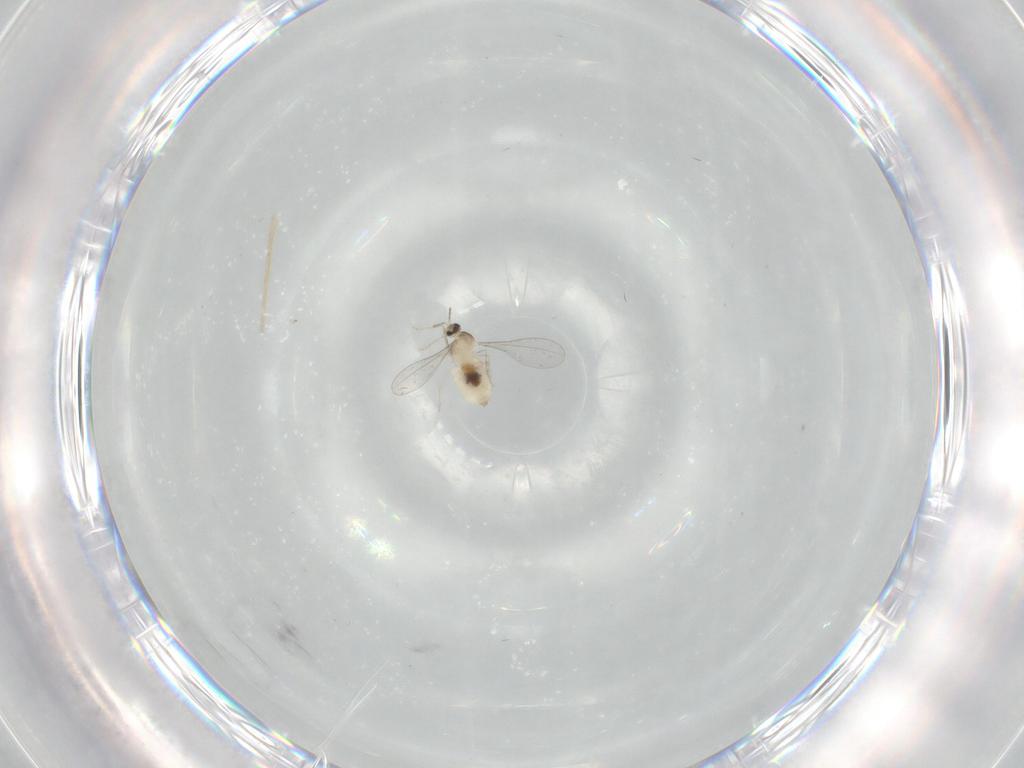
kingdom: Animalia
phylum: Arthropoda
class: Insecta
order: Diptera
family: Cecidomyiidae
